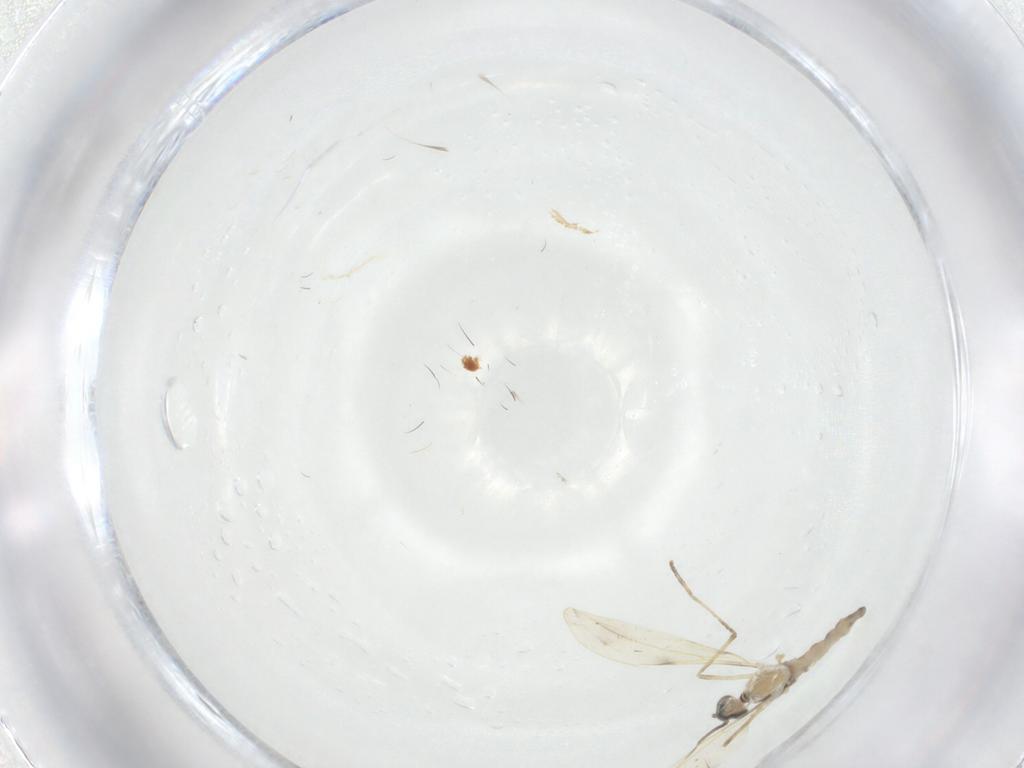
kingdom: Animalia
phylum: Arthropoda
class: Insecta
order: Diptera
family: Cecidomyiidae
